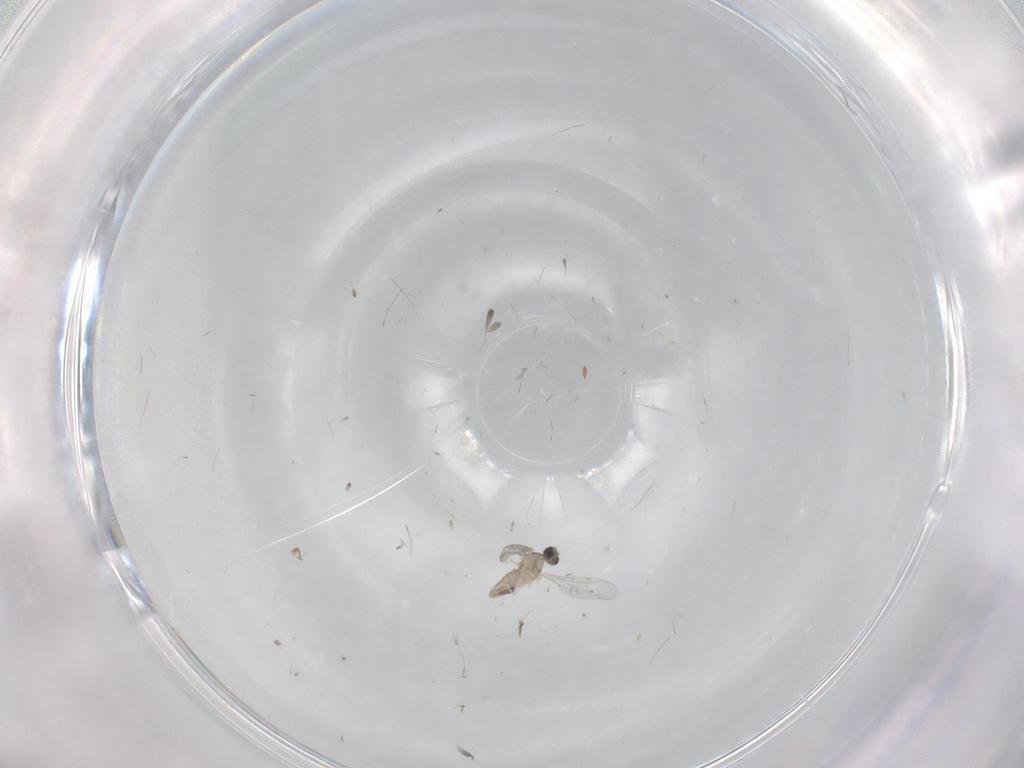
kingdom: Animalia
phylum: Arthropoda
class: Insecta
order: Diptera
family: Cecidomyiidae
